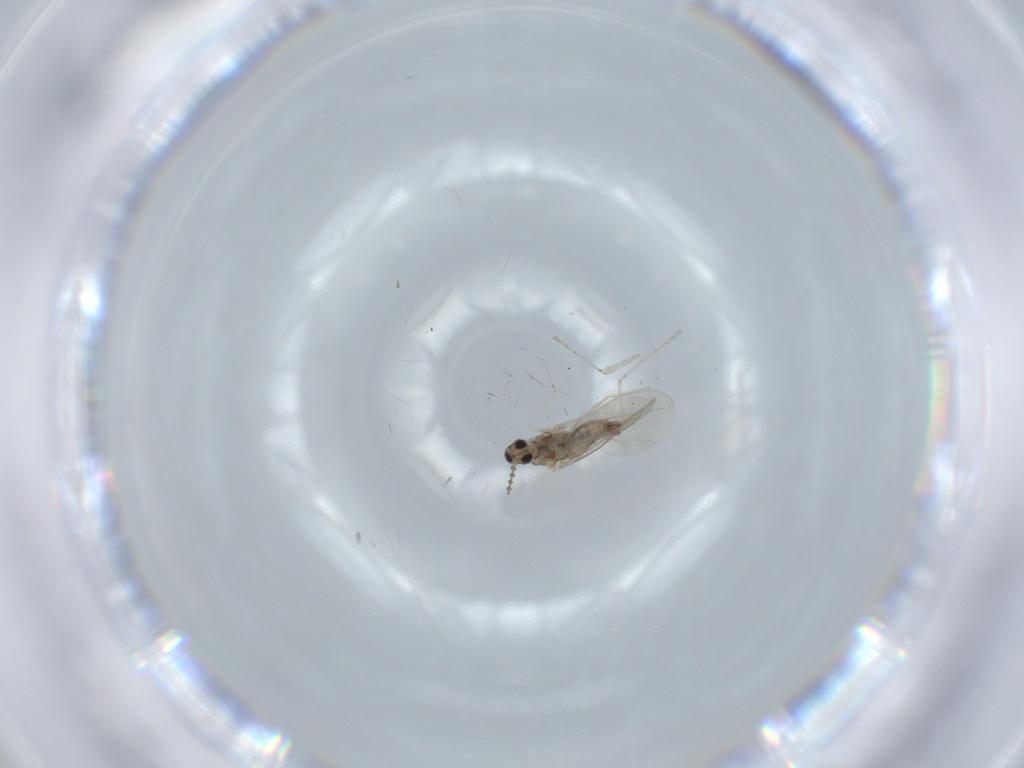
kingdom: Animalia
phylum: Arthropoda
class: Insecta
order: Diptera
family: Cecidomyiidae
